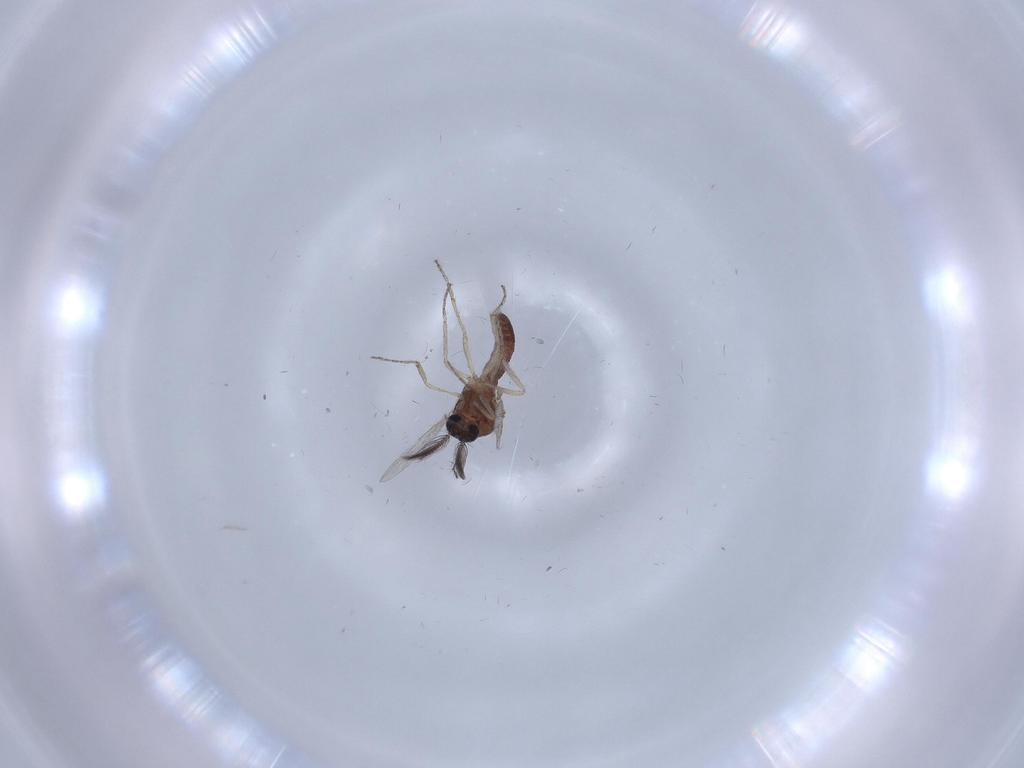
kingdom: Animalia
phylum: Arthropoda
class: Insecta
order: Diptera
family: Ceratopogonidae
